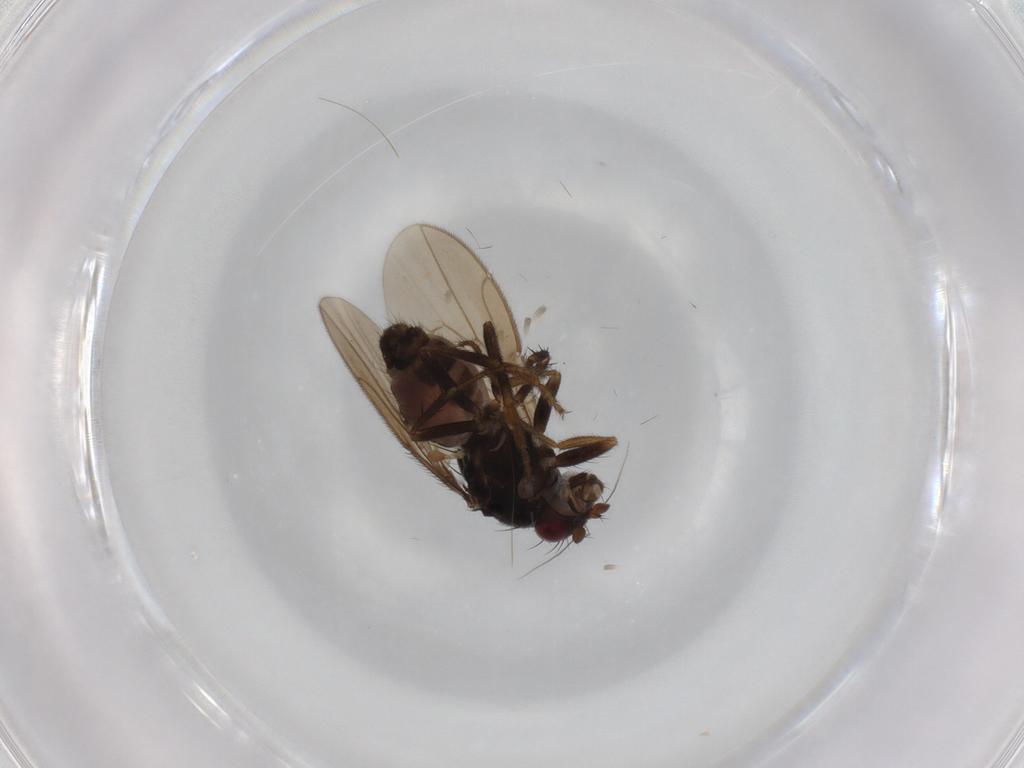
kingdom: Animalia
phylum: Arthropoda
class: Insecta
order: Diptera
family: Sphaeroceridae
